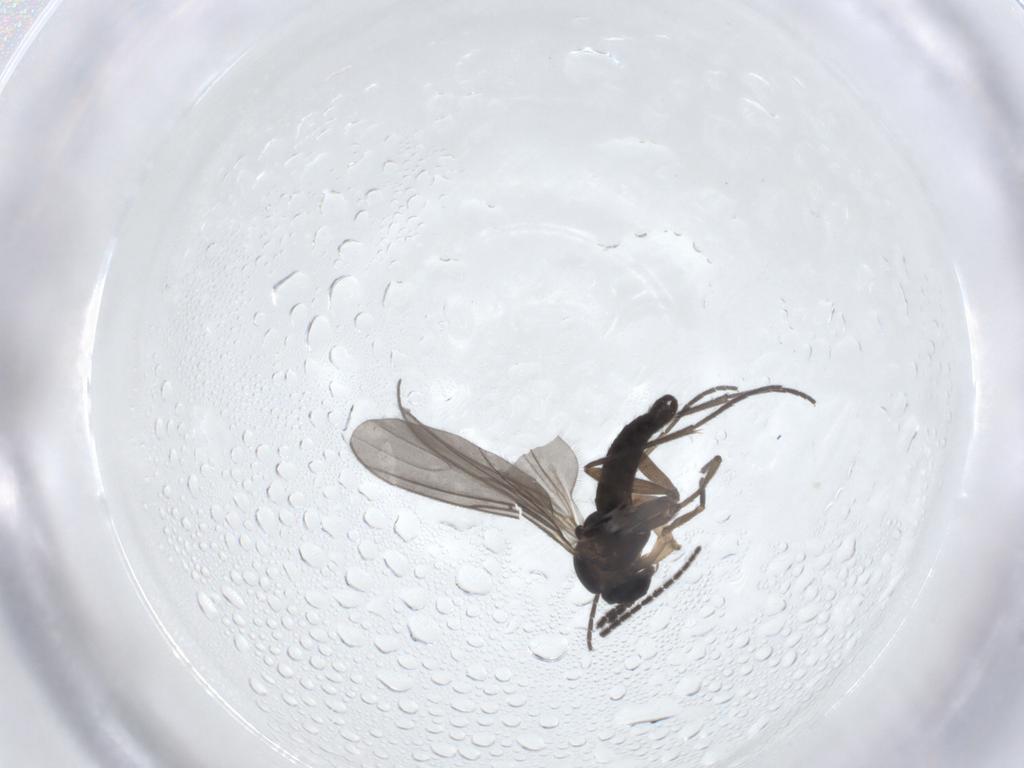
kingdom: Animalia
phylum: Arthropoda
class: Insecta
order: Diptera
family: Sciaridae
